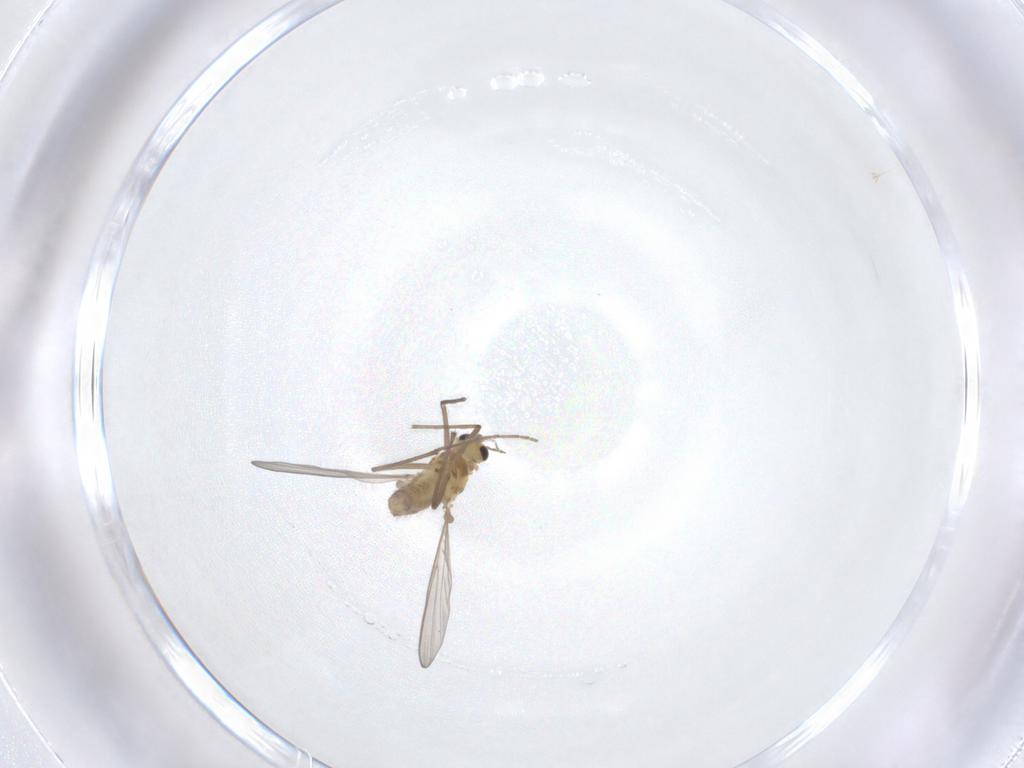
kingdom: Animalia
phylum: Arthropoda
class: Insecta
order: Diptera
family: Chironomidae
